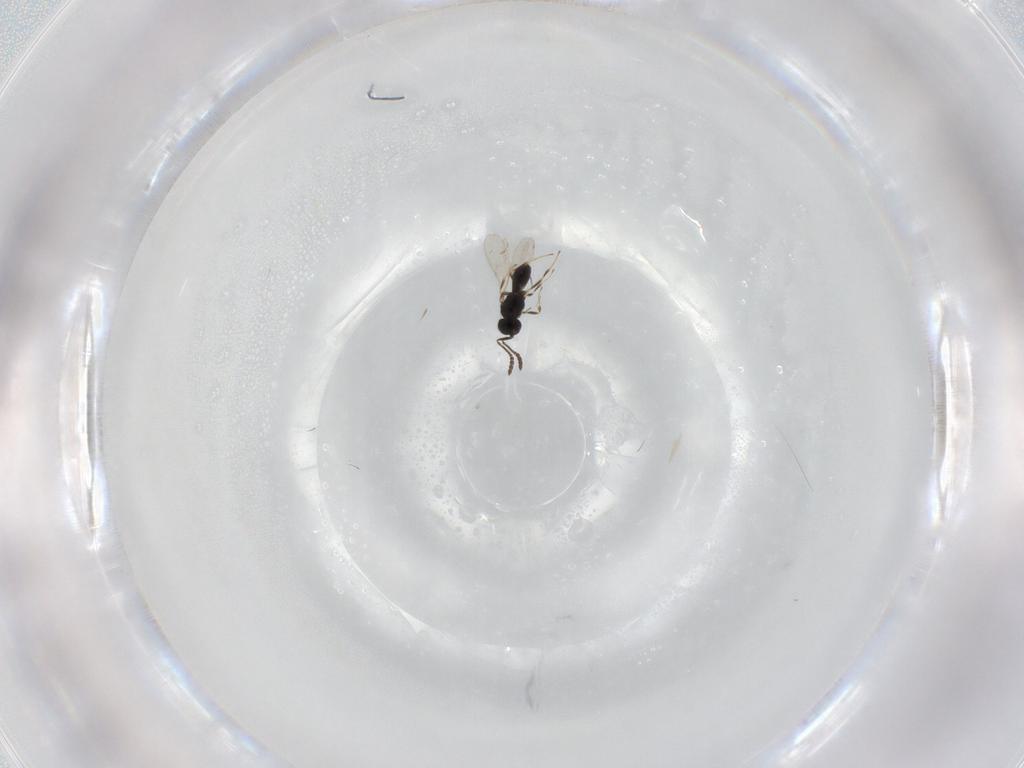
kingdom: Animalia
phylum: Arthropoda
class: Insecta
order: Hymenoptera
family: Scelionidae
